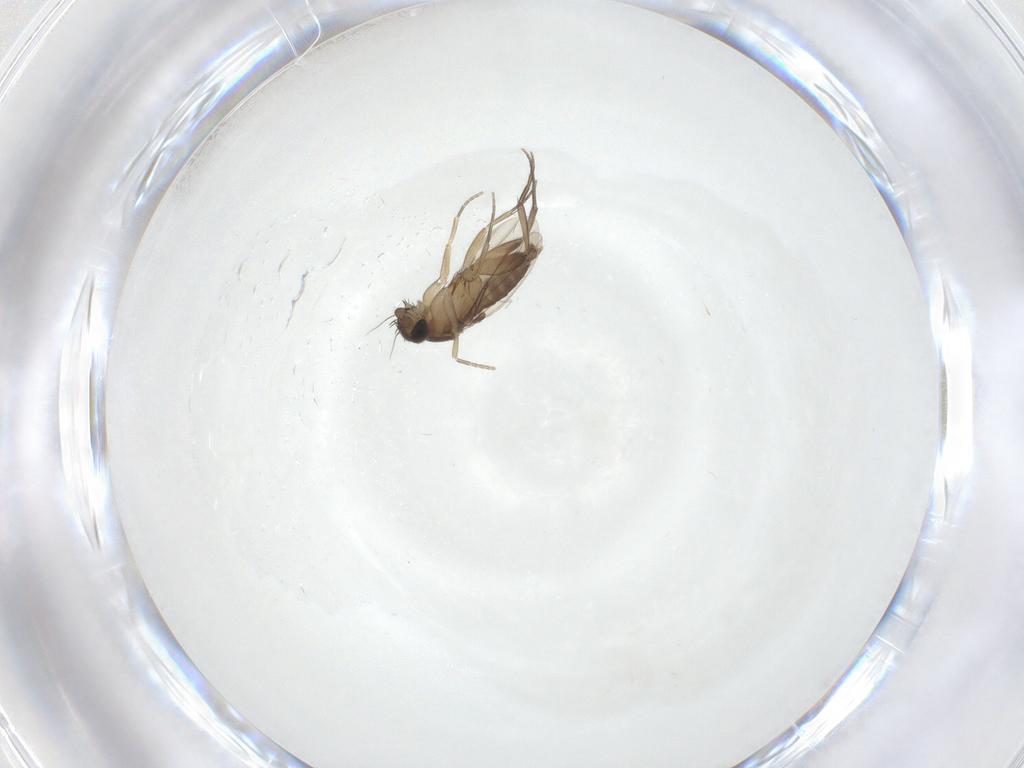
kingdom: Animalia
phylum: Arthropoda
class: Insecta
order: Diptera
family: Phoridae
